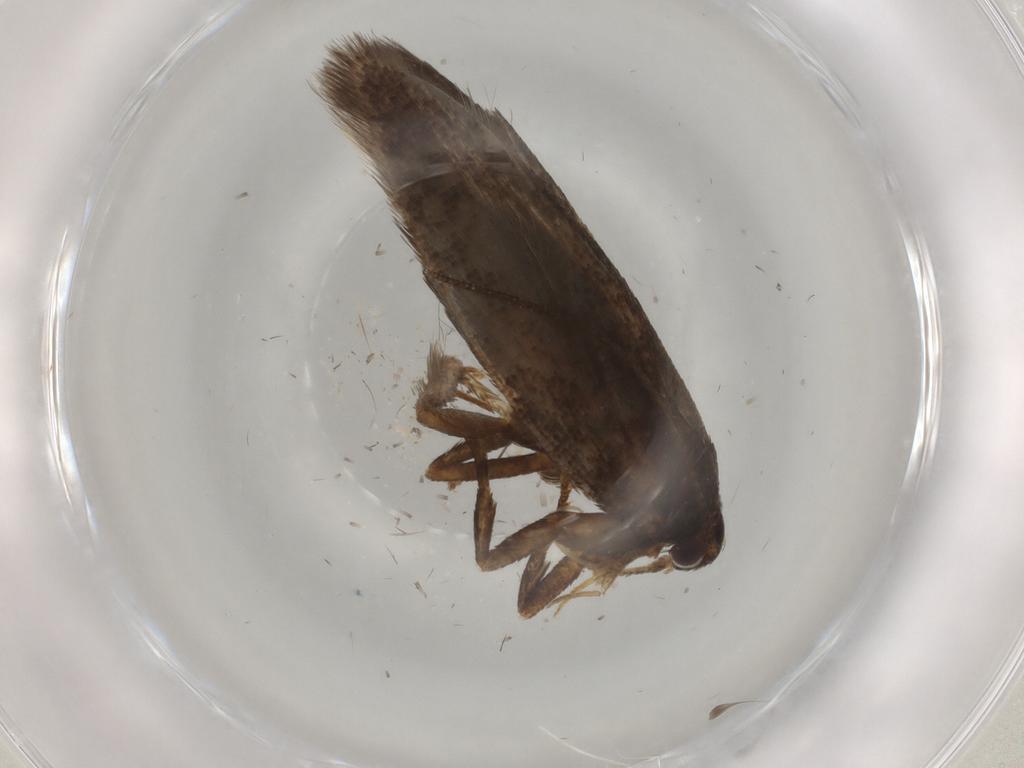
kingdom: Animalia
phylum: Arthropoda
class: Insecta
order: Lepidoptera
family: Gelechiidae
